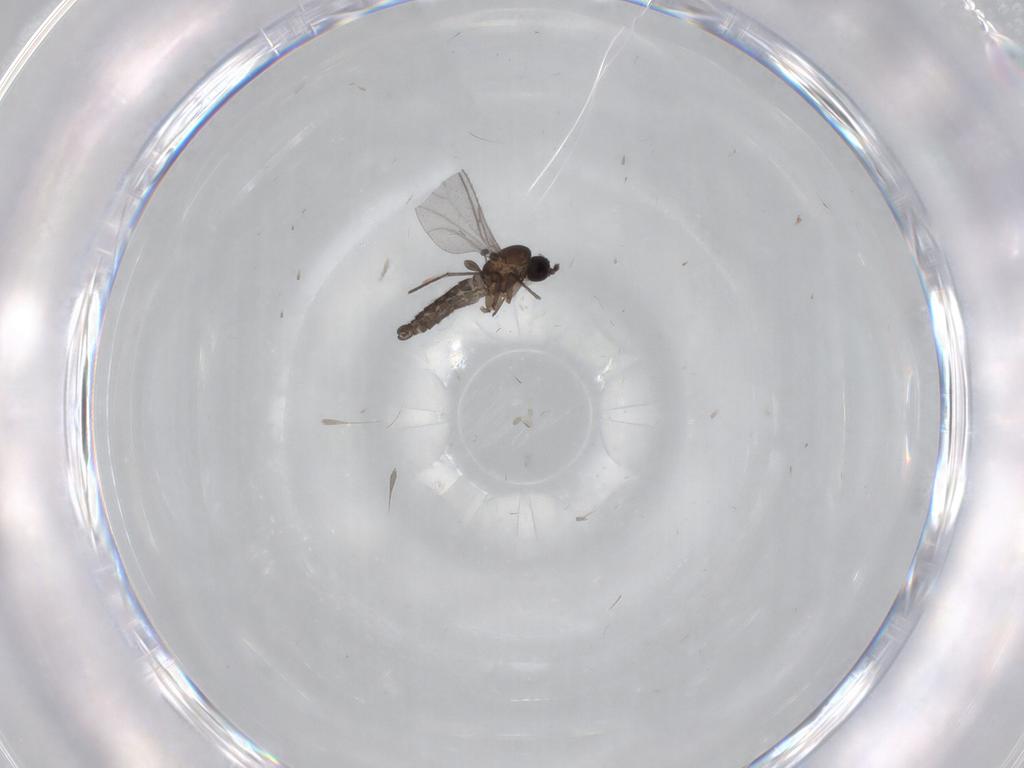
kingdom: Animalia
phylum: Arthropoda
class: Insecta
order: Diptera
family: Sciaridae
